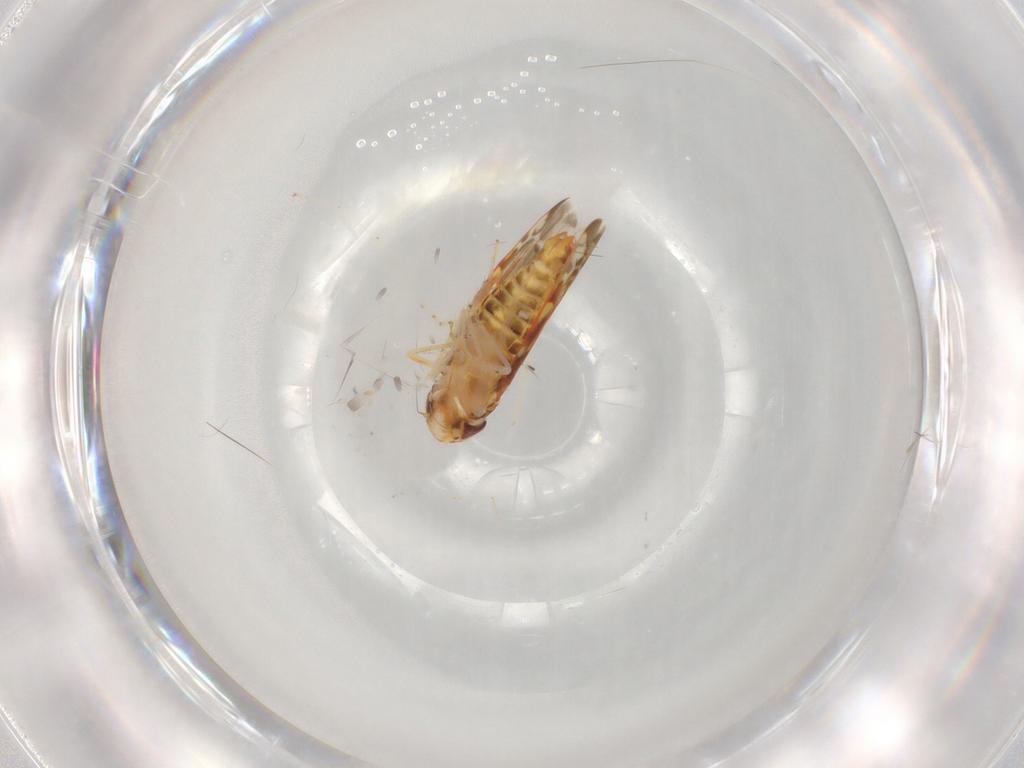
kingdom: Animalia
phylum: Arthropoda
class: Insecta
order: Hemiptera
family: Cicadellidae
